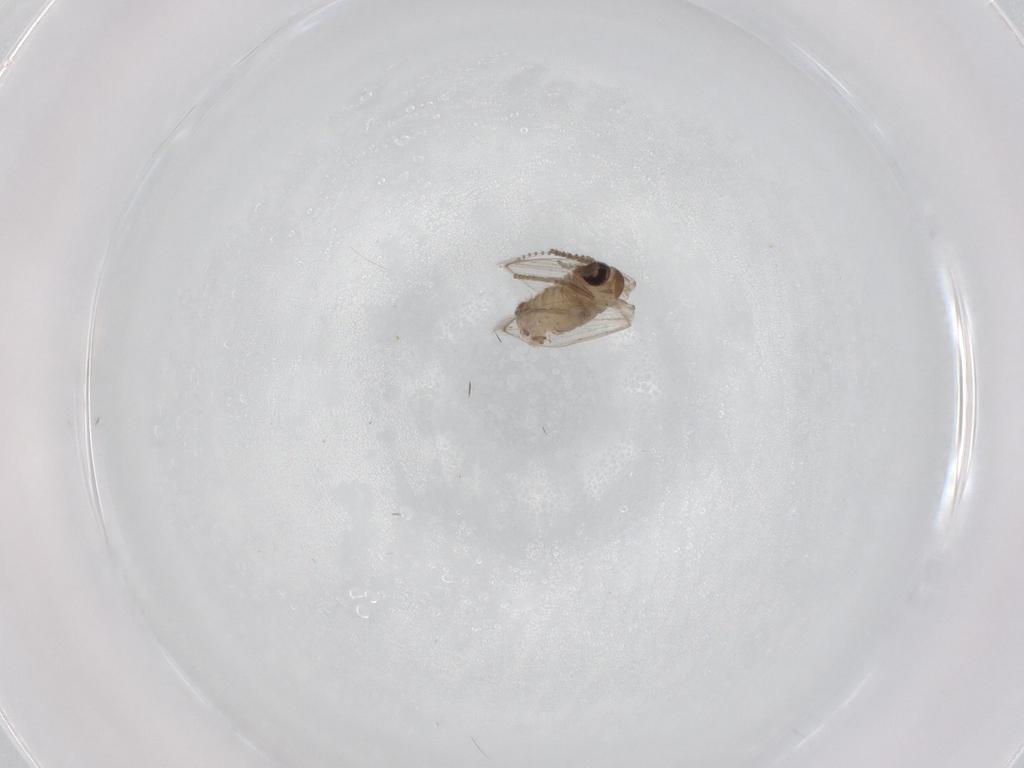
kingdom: Animalia
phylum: Arthropoda
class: Insecta
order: Diptera
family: Psychodidae
